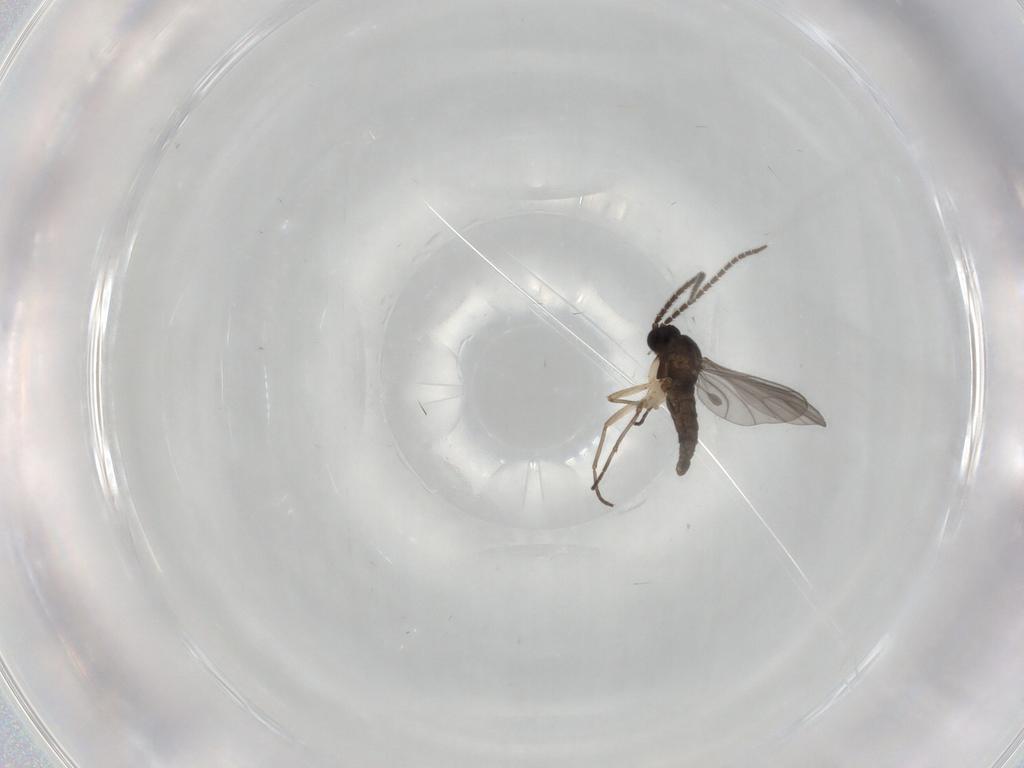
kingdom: Animalia
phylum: Arthropoda
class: Insecta
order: Diptera
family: Sciaridae
